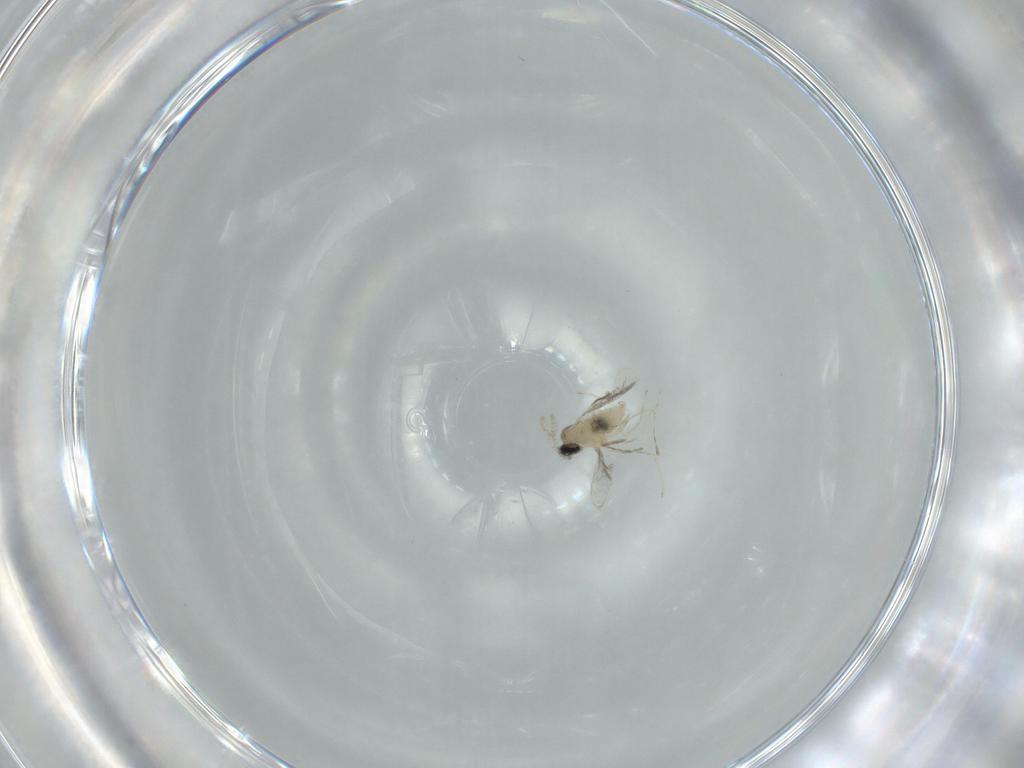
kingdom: Animalia
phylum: Arthropoda
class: Insecta
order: Diptera
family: Cecidomyiidae
